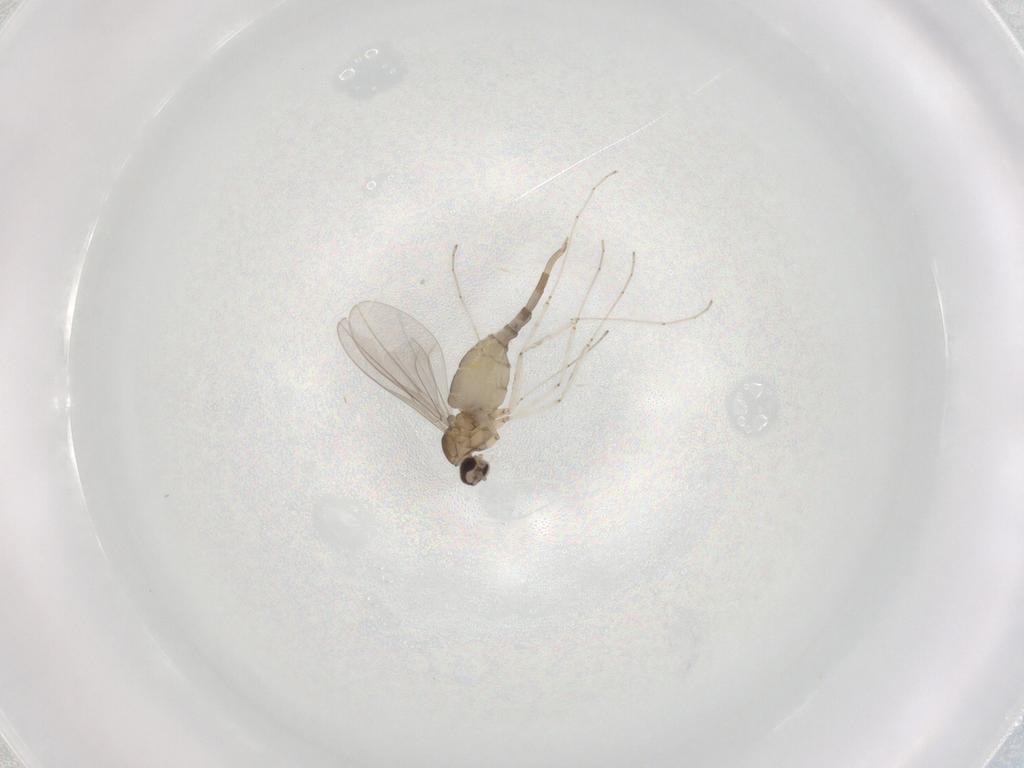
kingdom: Animalia
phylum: Arthropoda
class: Insecta
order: Diptera
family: Cecidomyiidae
